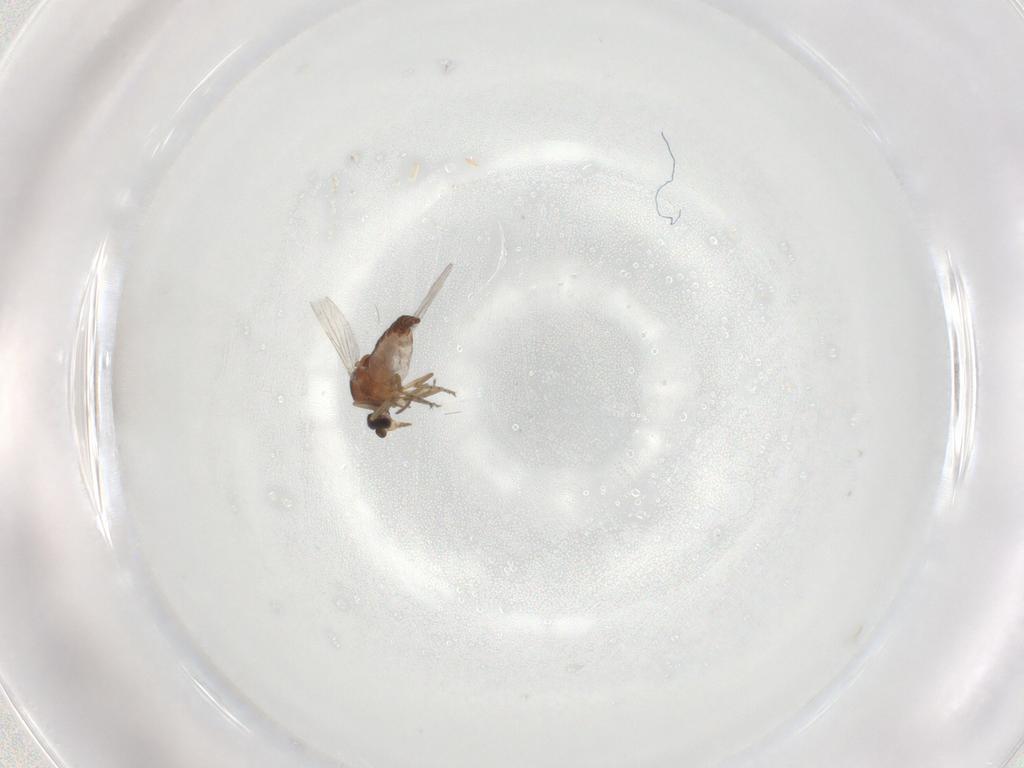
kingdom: Animalia
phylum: Arthropoda
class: Insecta
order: Diptera
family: Ceratopogonidae
